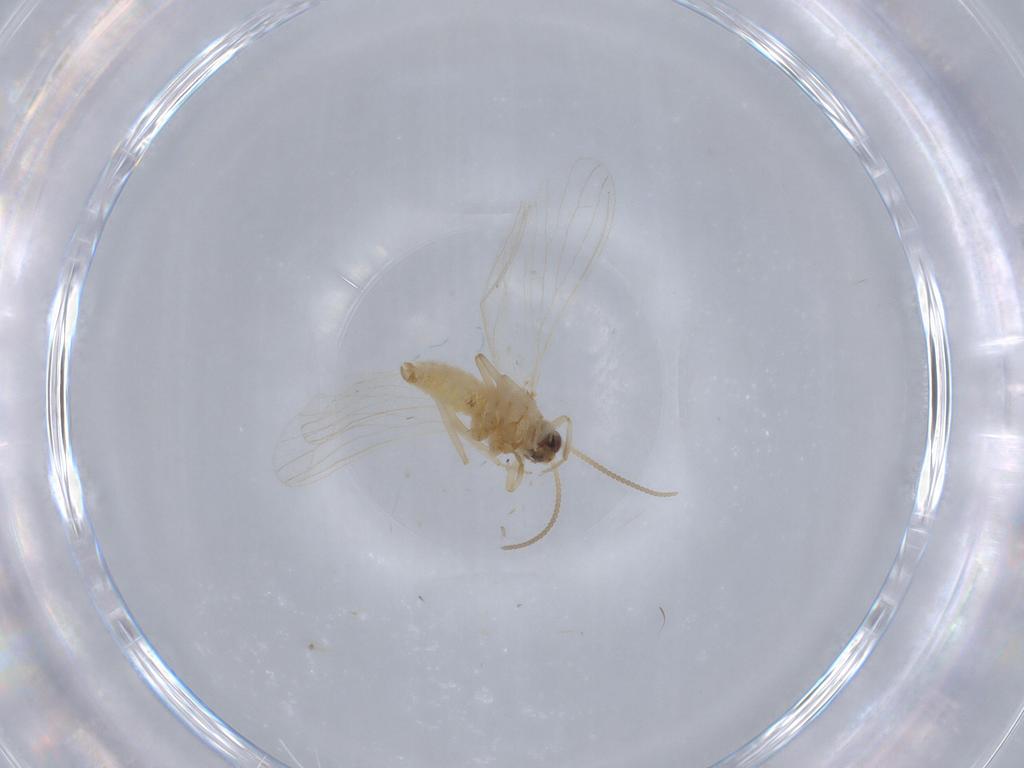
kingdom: Animalia
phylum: Arthropoda
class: Insecta
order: Neuroptera
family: Coniopterygidae
